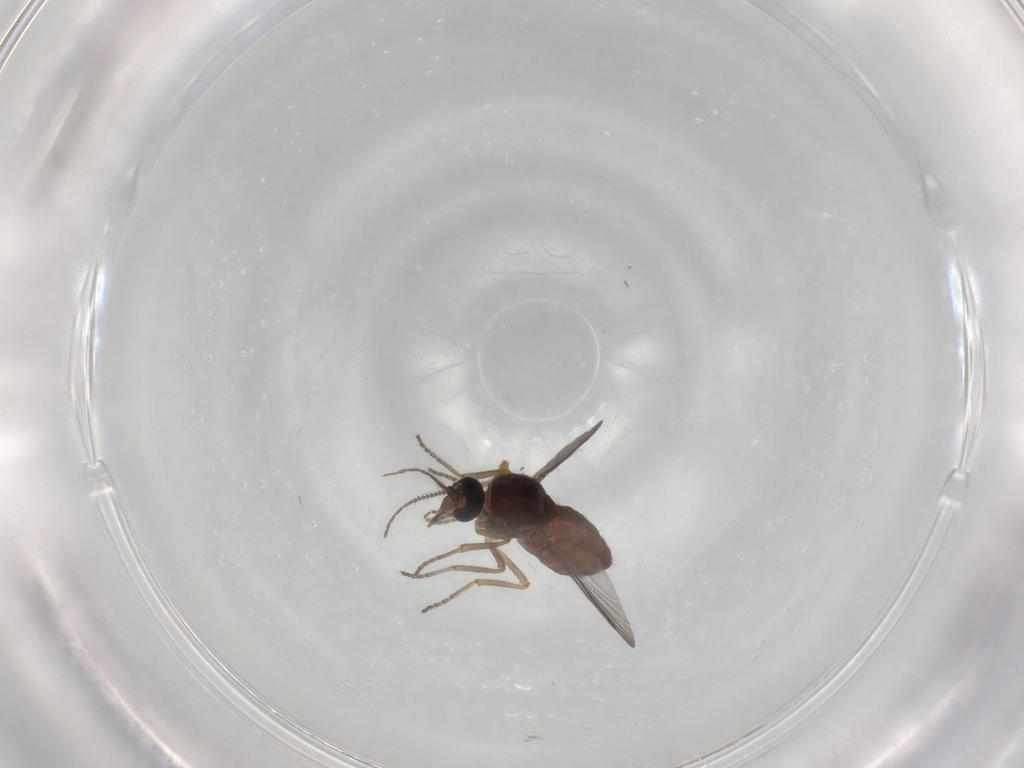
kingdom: Animalia
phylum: Arthropoda
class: Insecta
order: Diptera
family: Ceratopogonidae
